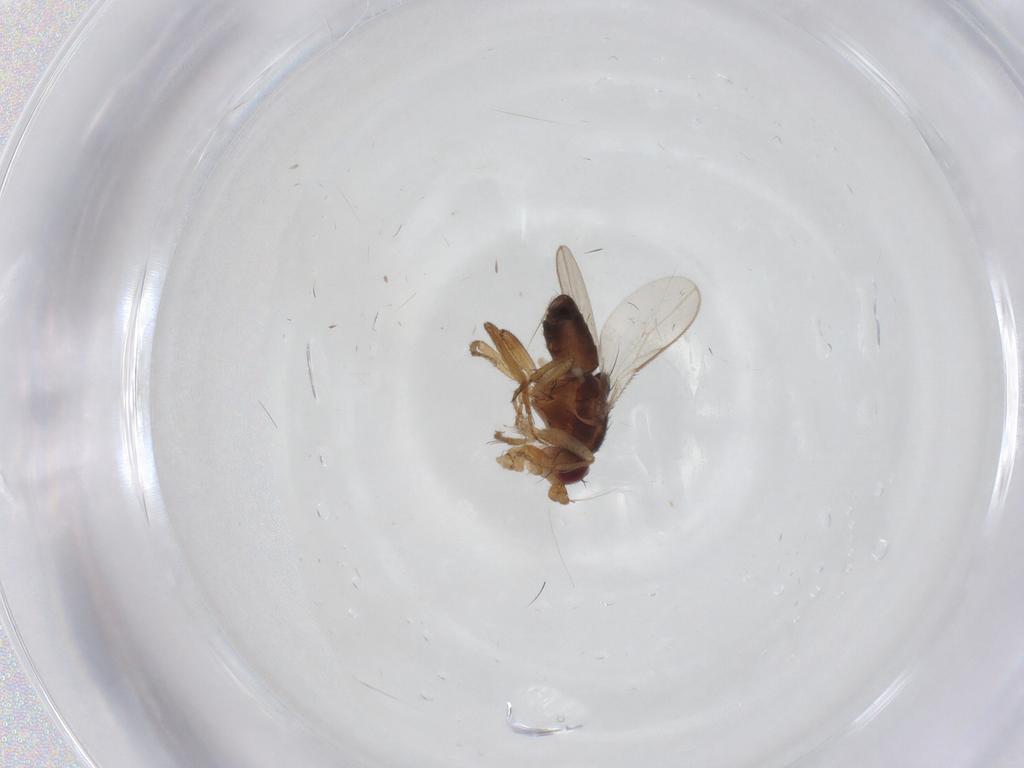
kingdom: Animalia
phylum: Arthropoda
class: Insecta
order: Diptera
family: Sphaeroceridae
